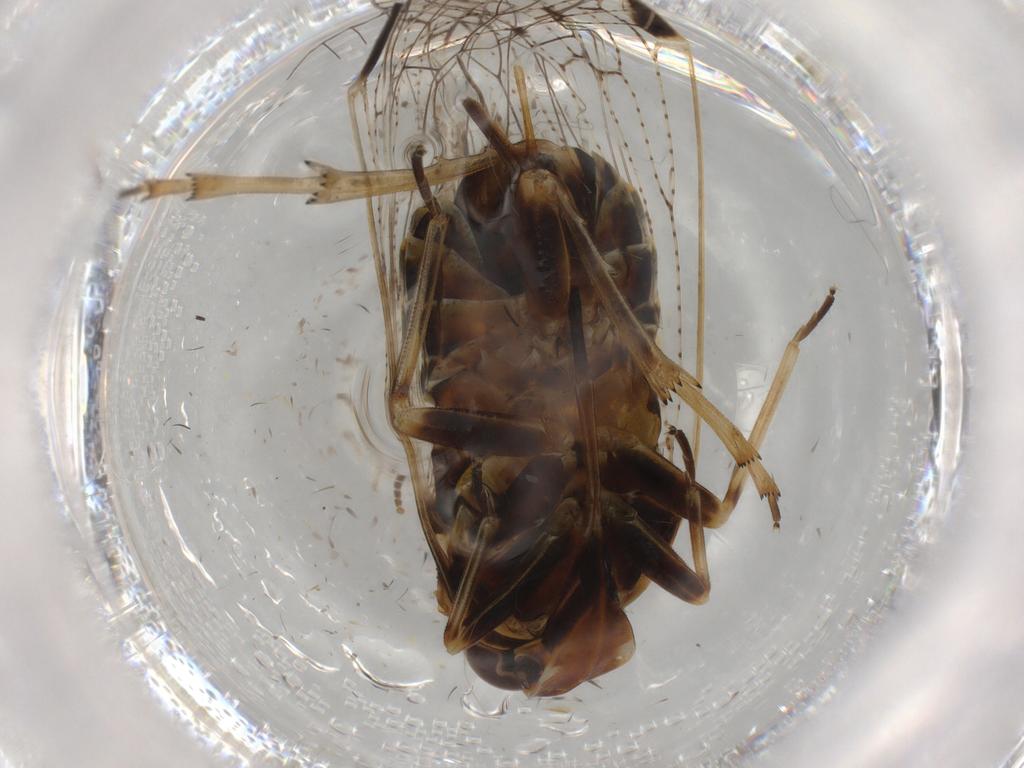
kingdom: Animalia
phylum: Arthropoda
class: Insecta
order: Hemiptera
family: Cixiidae
